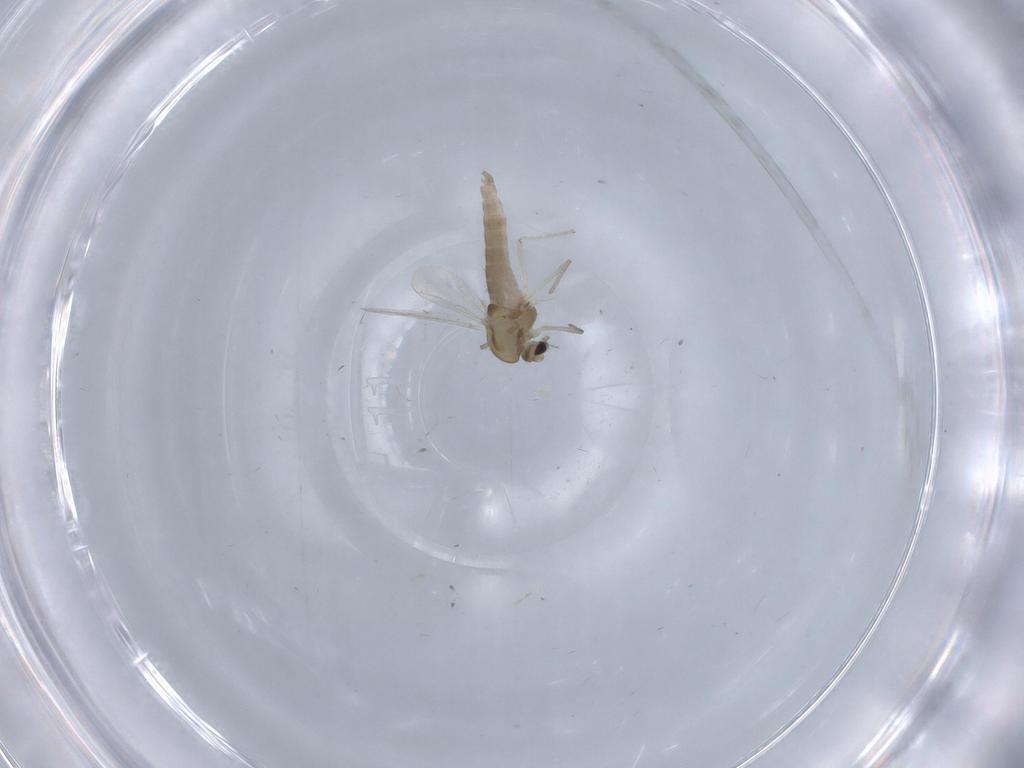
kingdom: Animalia
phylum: Arthropoda
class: Insecta
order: Diptera
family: Chironomidae
